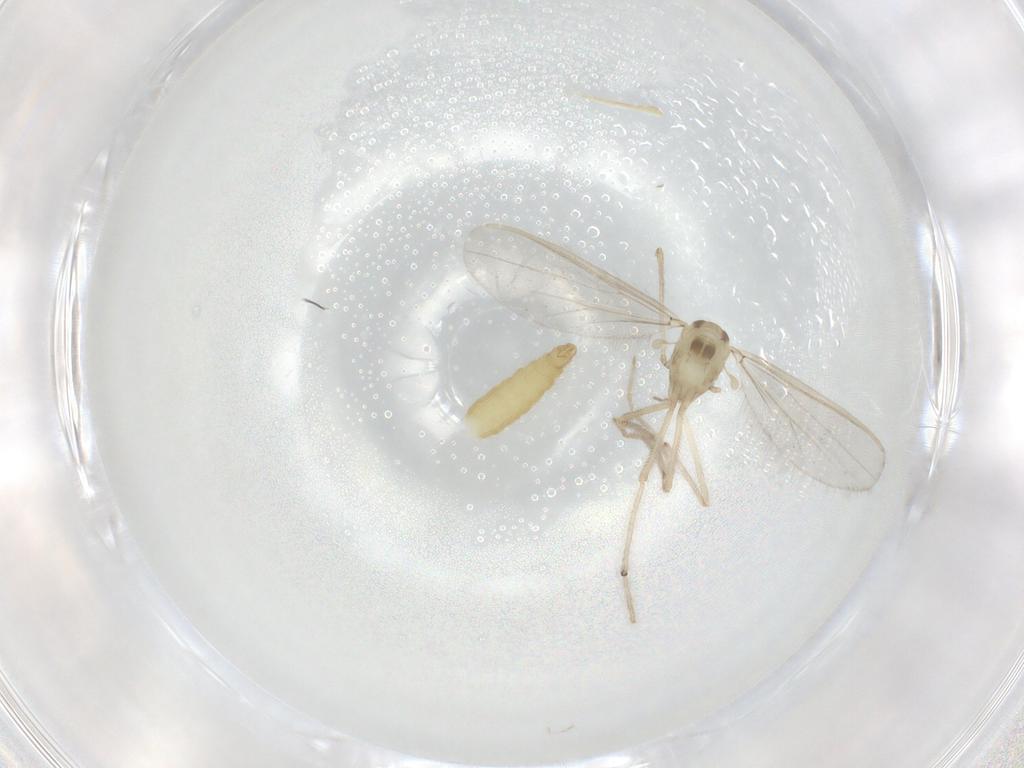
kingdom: Animalia
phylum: Arthropoda
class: Insecta
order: Diptera
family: Chironomidae
